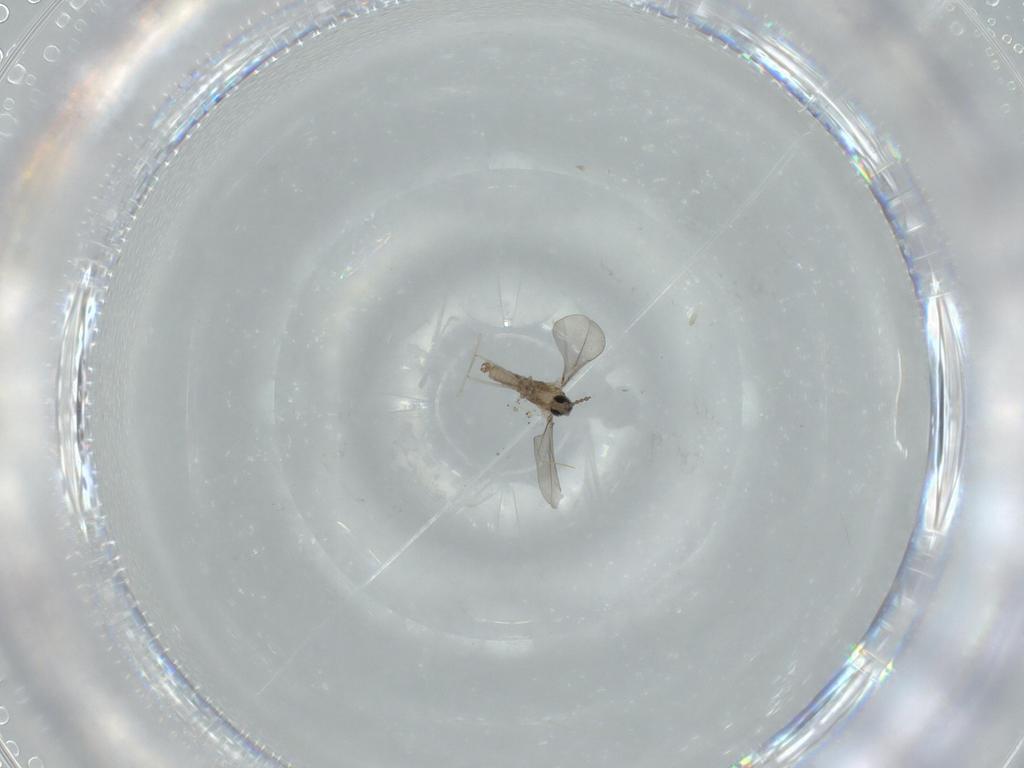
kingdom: Animalia
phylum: Arthropoda
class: Insecta
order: Diptera
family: Cecidomyiidae
